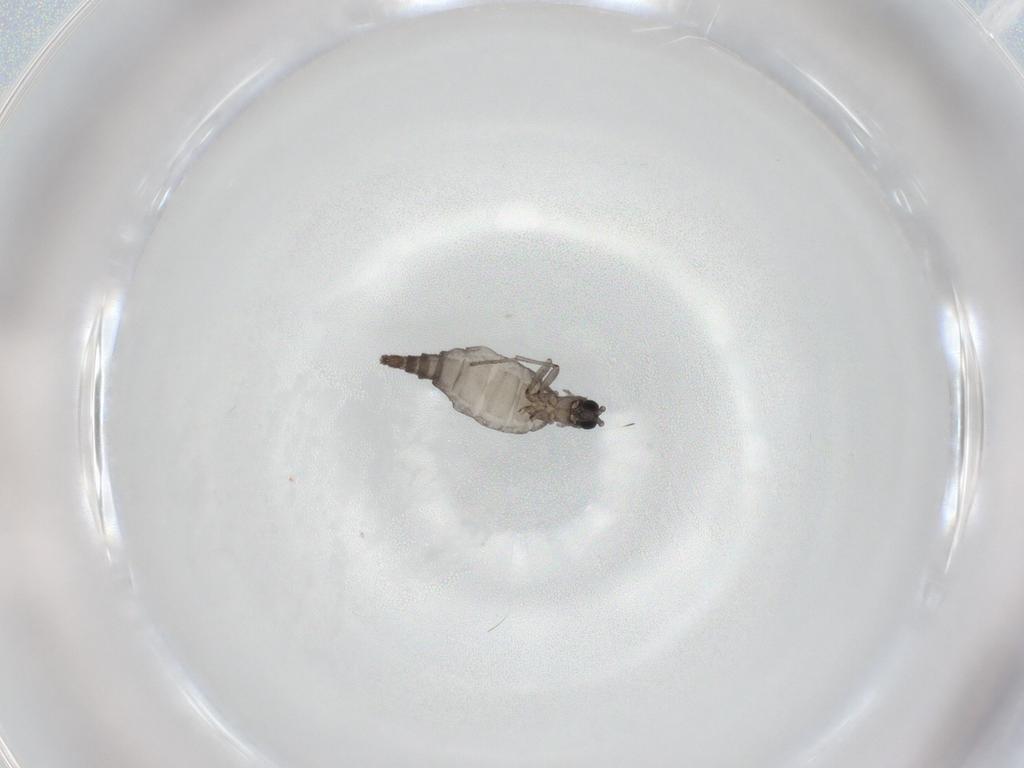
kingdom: Animalia
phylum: Arthropoda
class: Insecta
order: Diptera
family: Sciaridae
